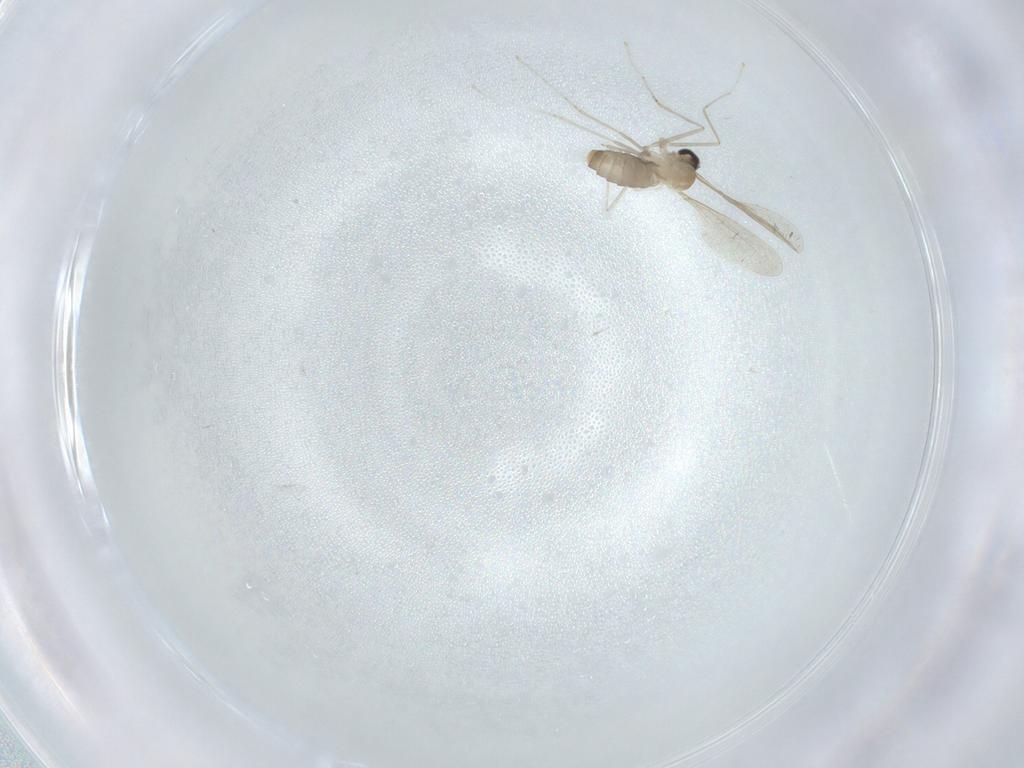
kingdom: Animalia
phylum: Arthropoda
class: Insecta
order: Diptera
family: Cecidomyiidae
